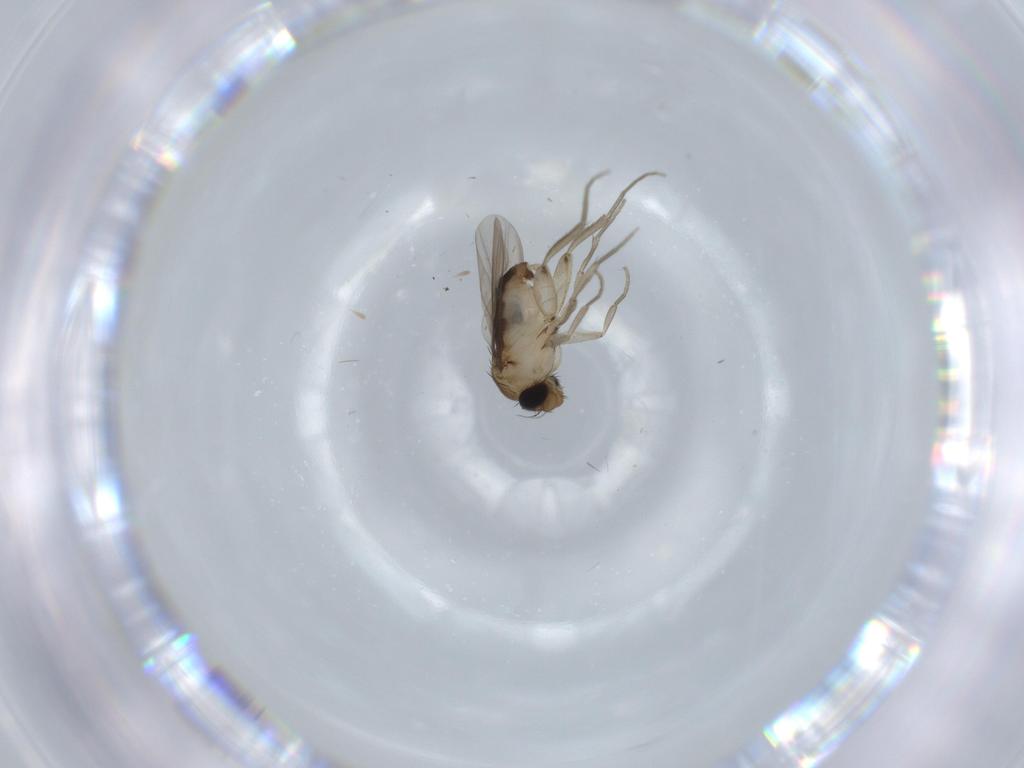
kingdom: Animalia
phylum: Arthropoda
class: Insecta
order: Diptera
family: Phoridae
